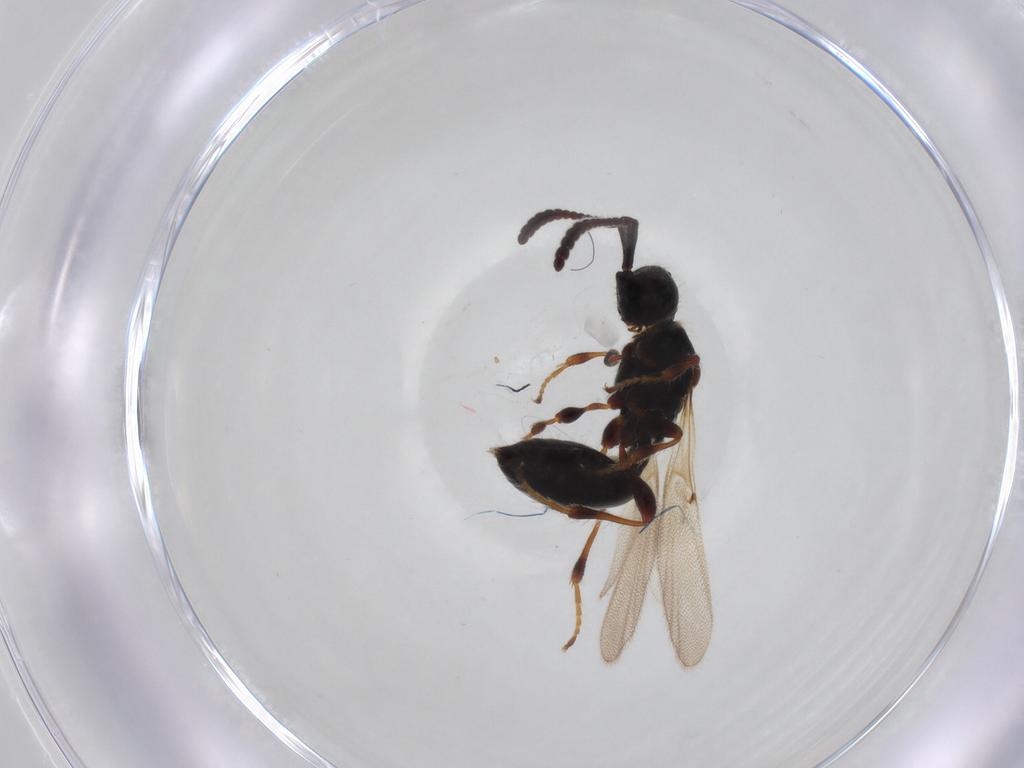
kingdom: Animalia
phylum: Arthropoda
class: Insecta
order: Hymenoptera
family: Diapriidae
